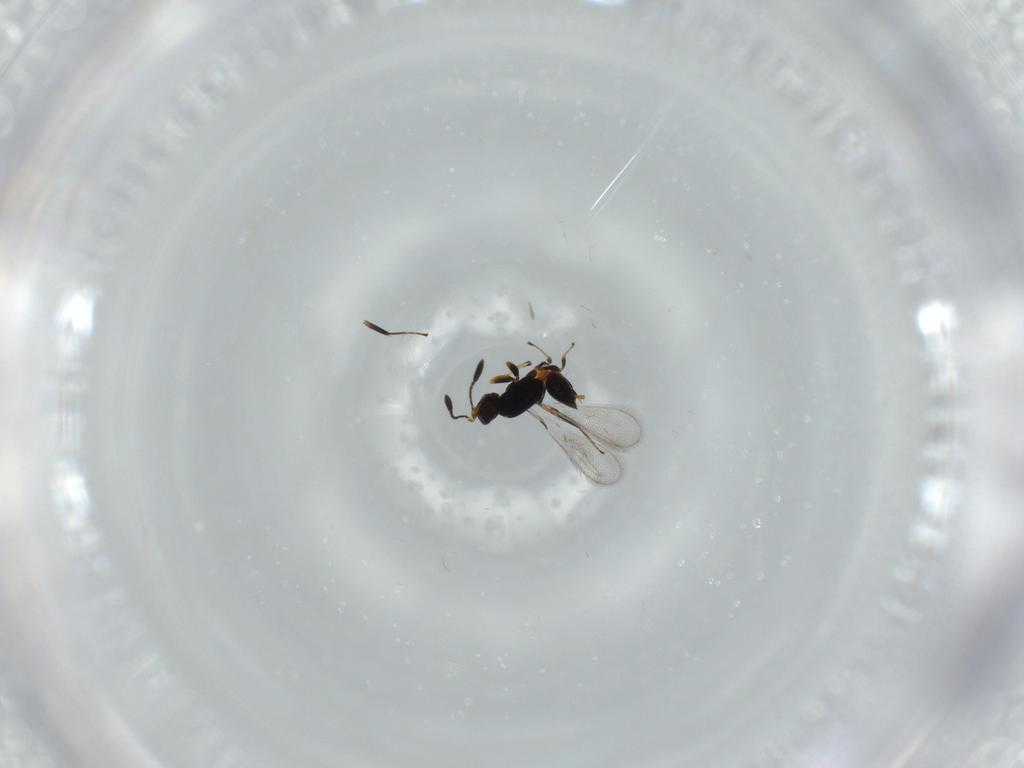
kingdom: Animalia
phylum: Arthropoda
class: Insecta
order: Hymenoptera
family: Mymaridae
